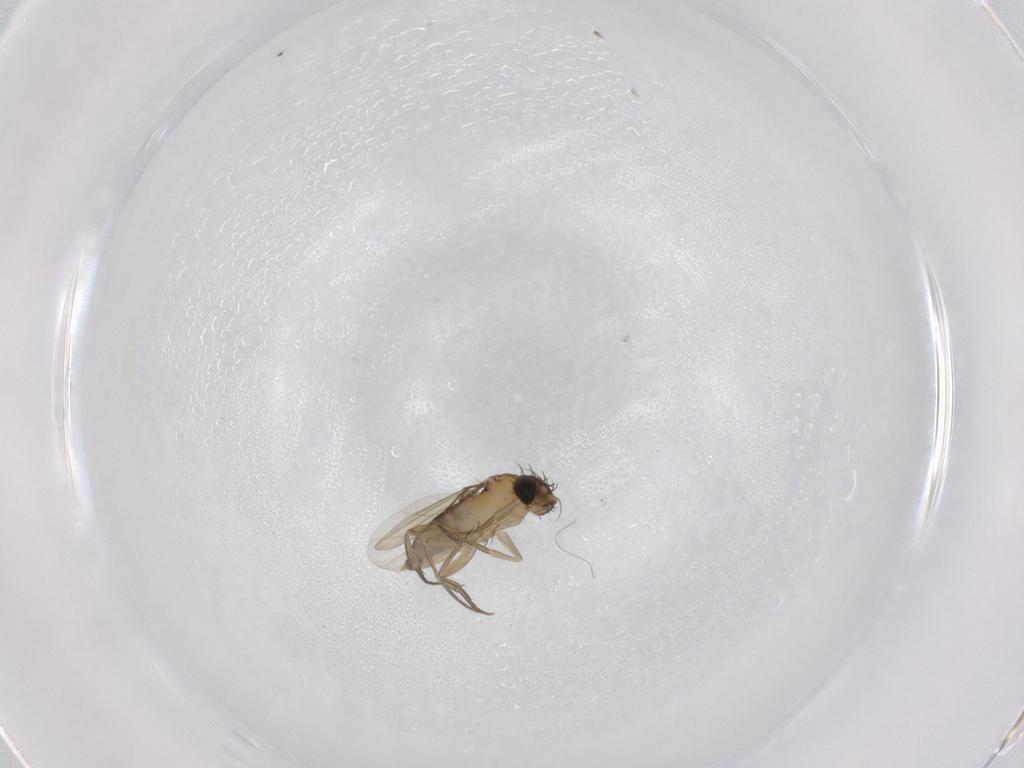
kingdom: Animalia
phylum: Arthropoda
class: Insecta
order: Diptera
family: Phoridae
